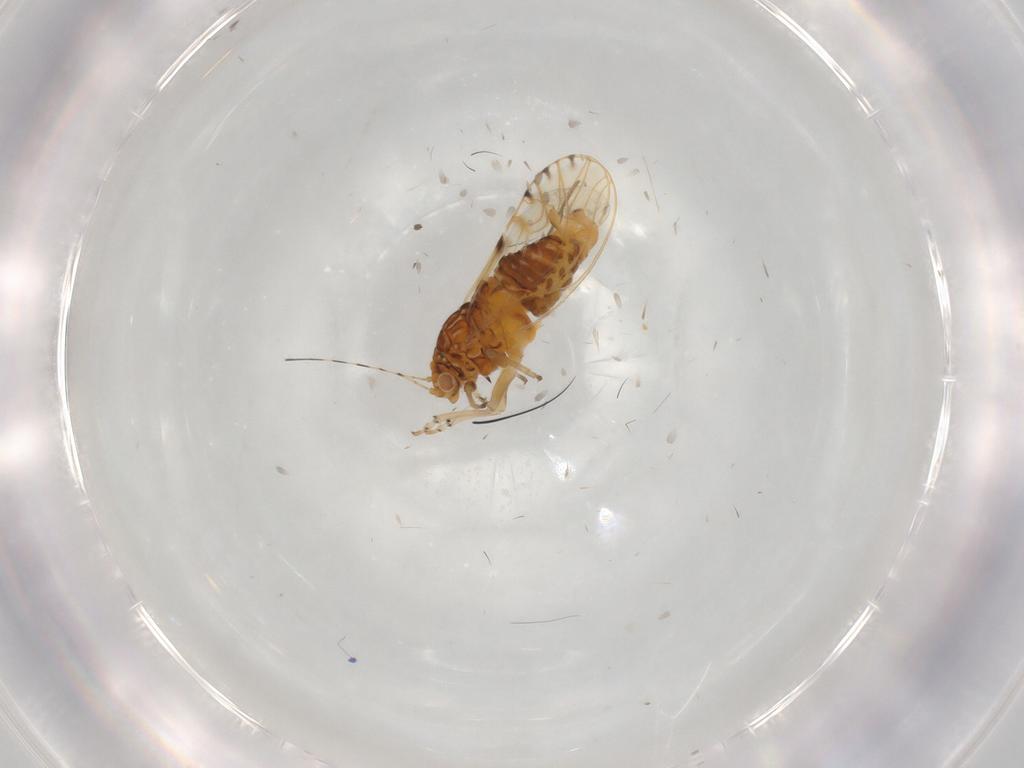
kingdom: Animalia
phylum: Arthropoda
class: Insecta
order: Hemiptera
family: Psylloidea_incertae_sedis
